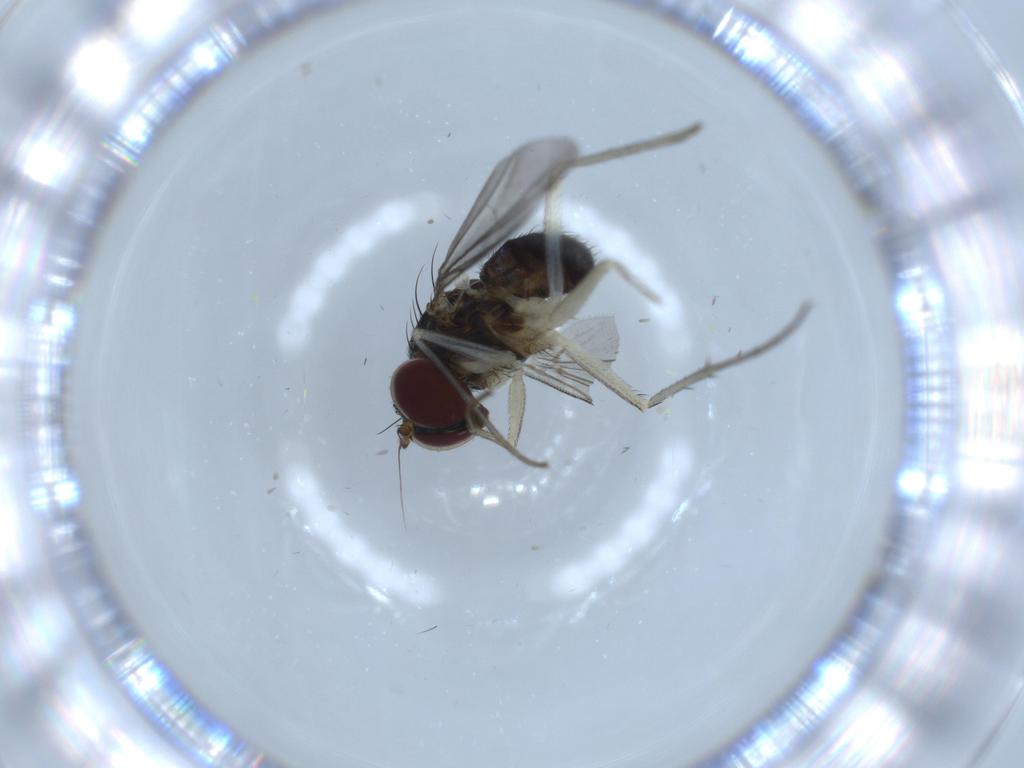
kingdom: Animalia
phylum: Arthropoda
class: Insecta
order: Diptera
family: Dolichopodidae
